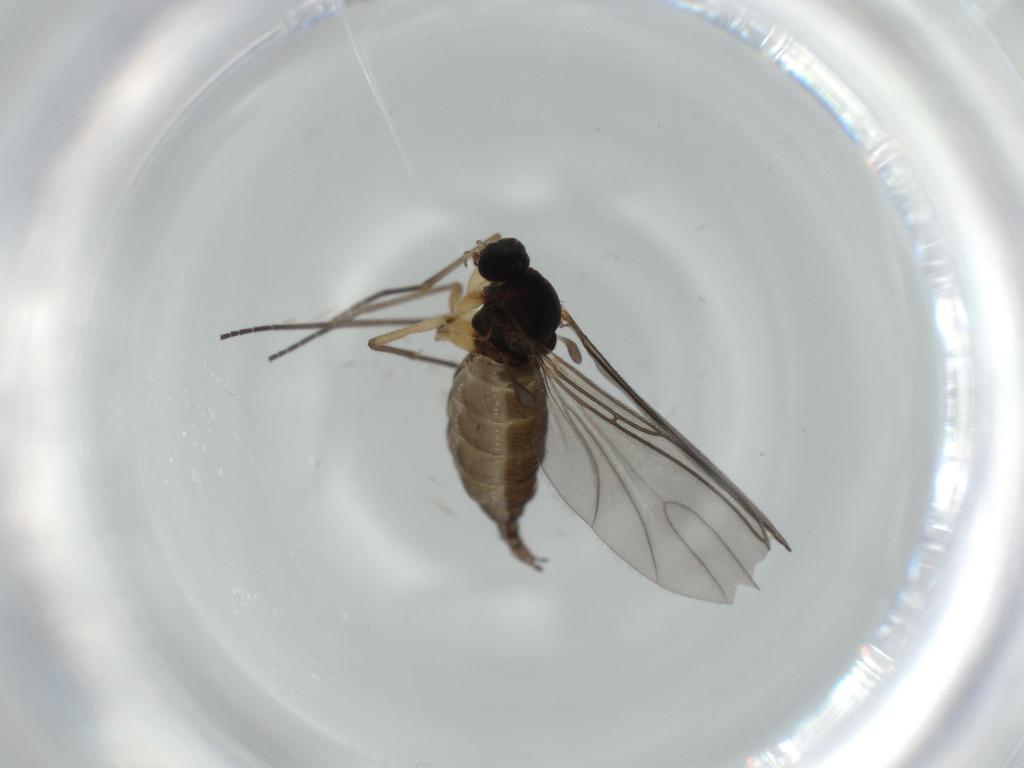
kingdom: Animalia
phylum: Arthropoda
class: Insecta
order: Diptera
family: Sciaridae
